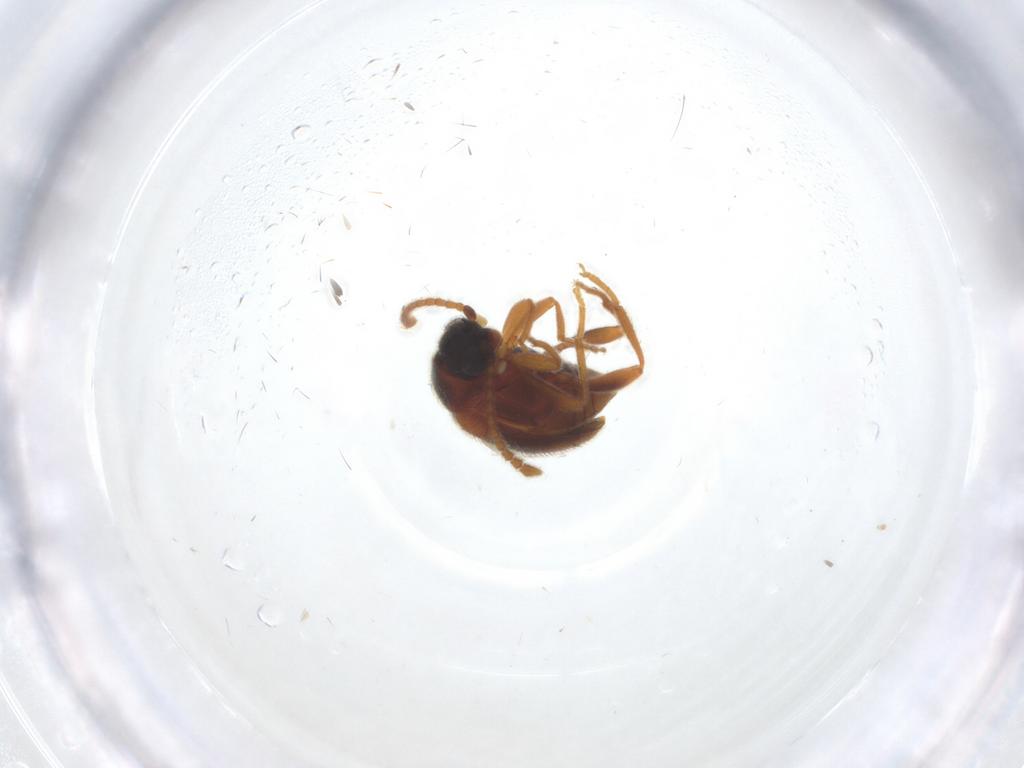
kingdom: Animalia
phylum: Arthropoda
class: Insecta
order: Coleoptera
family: Aderidae
